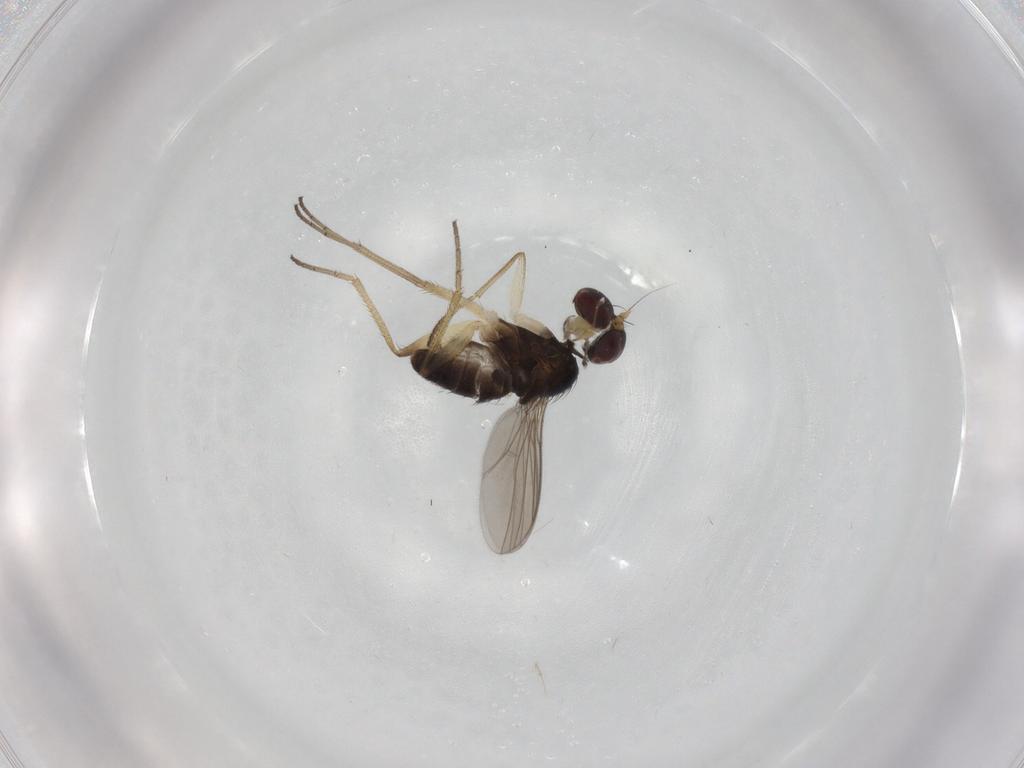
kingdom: Animalia
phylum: Arthropoda
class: Insecta
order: Diptera
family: Dolichopodidae
